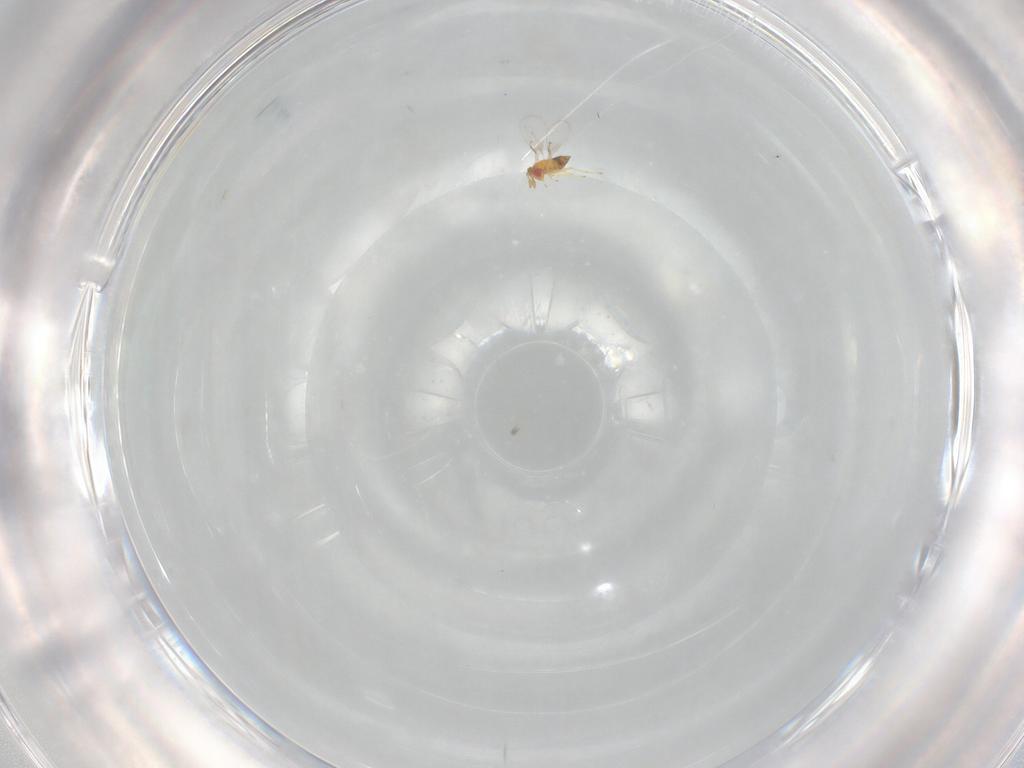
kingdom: Animalia
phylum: Arthropoda
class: Insecta
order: Hymenoptera
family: Trichogrammatidae
